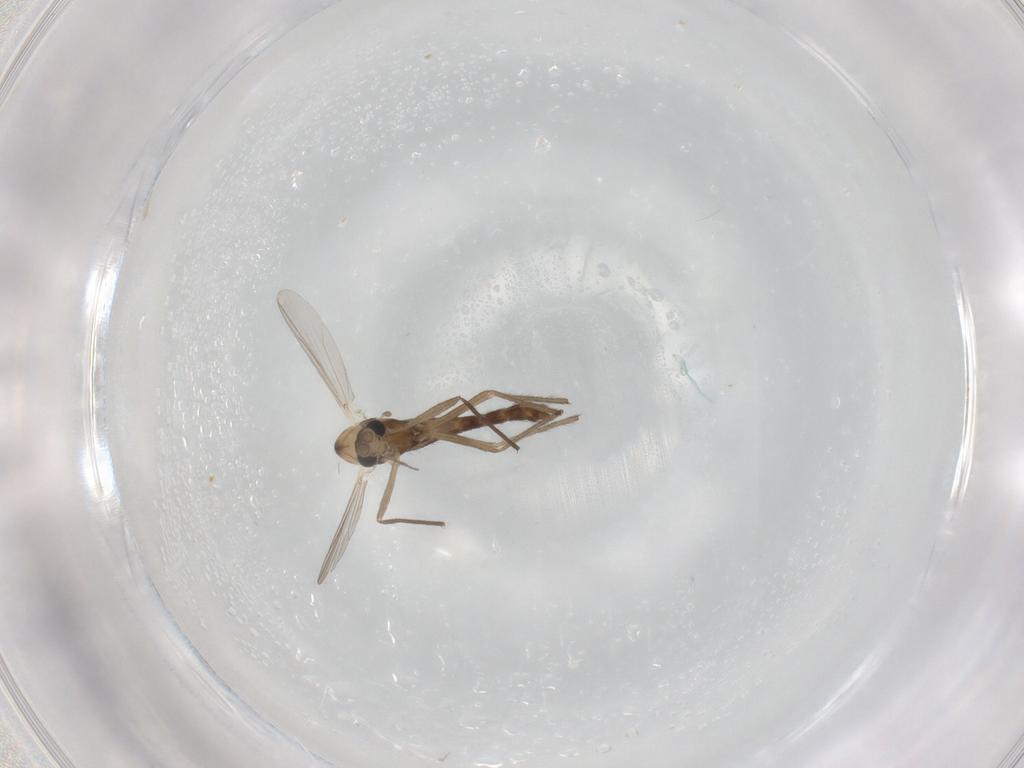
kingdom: Animalia
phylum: Arthropoda
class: Insecta
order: Diptera
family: Chironomidae
